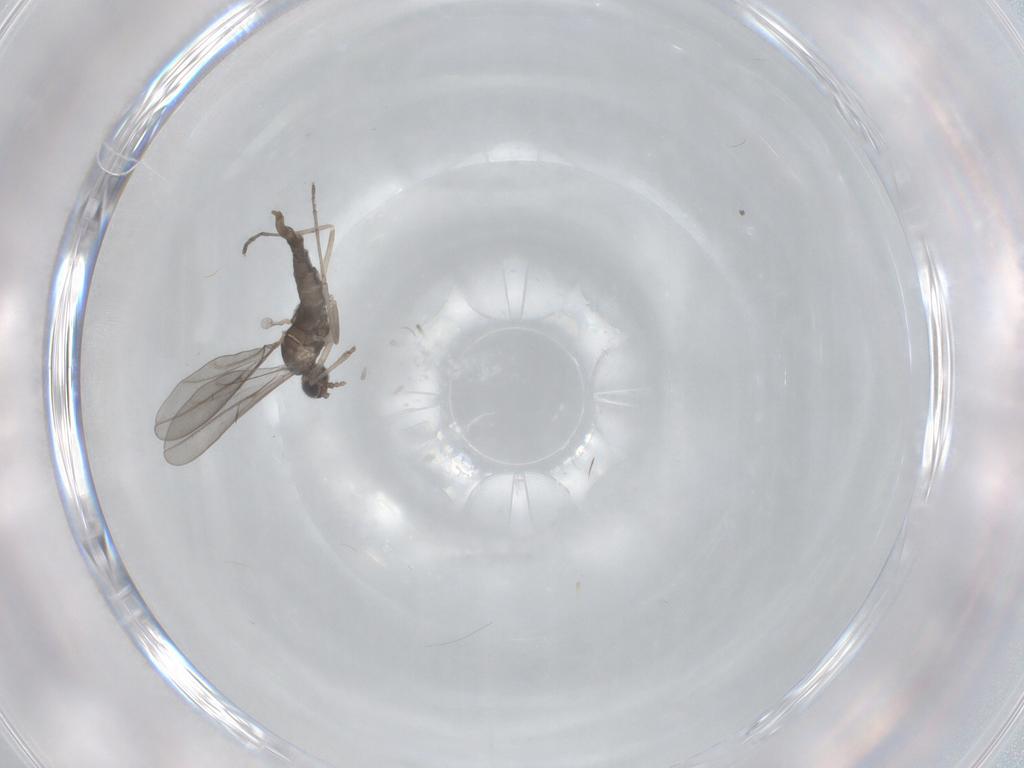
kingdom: Animalia
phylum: Arthropoda
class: Insecta
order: Diptera
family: Cecidomyiidae
